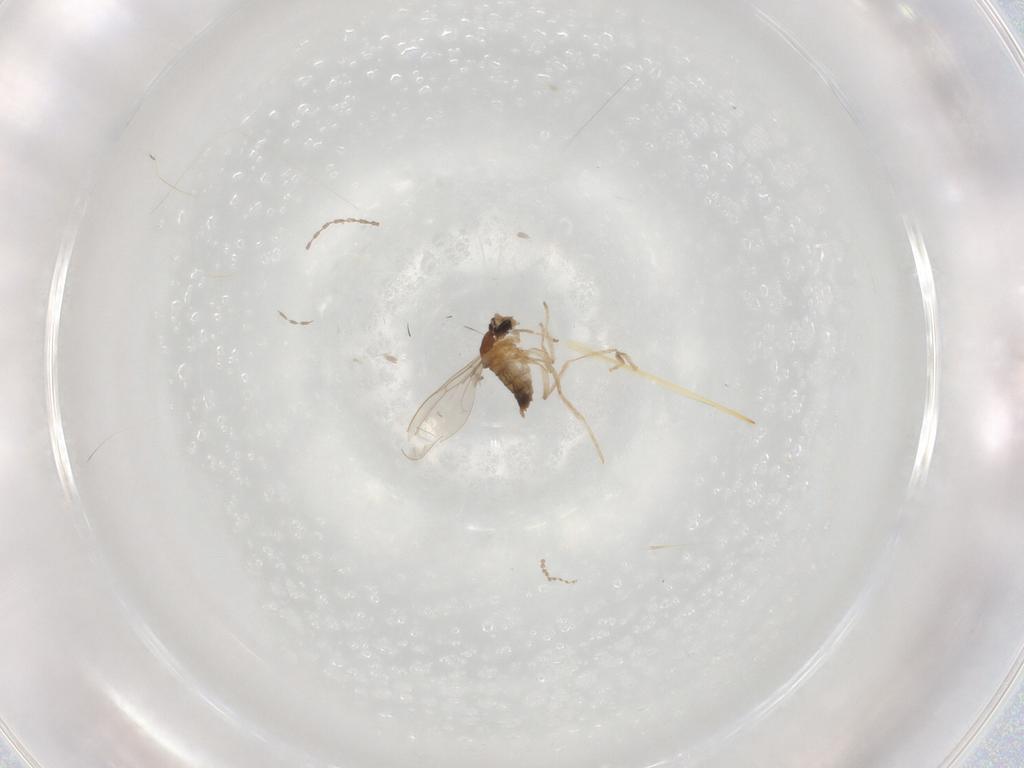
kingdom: Animalia
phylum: Arthropoda
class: Insecta
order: Diptera
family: Cecidomyiidae
